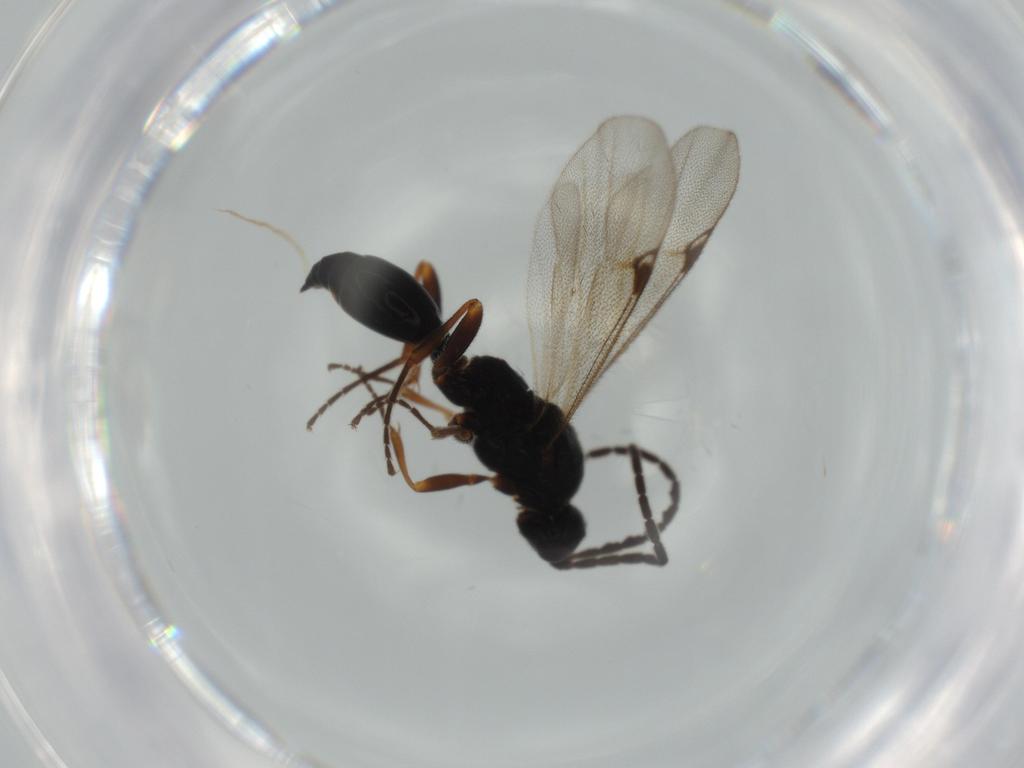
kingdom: Animalia
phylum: Arthropoda
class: Insecta
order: Hymenoptera
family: Proctotrupidae
